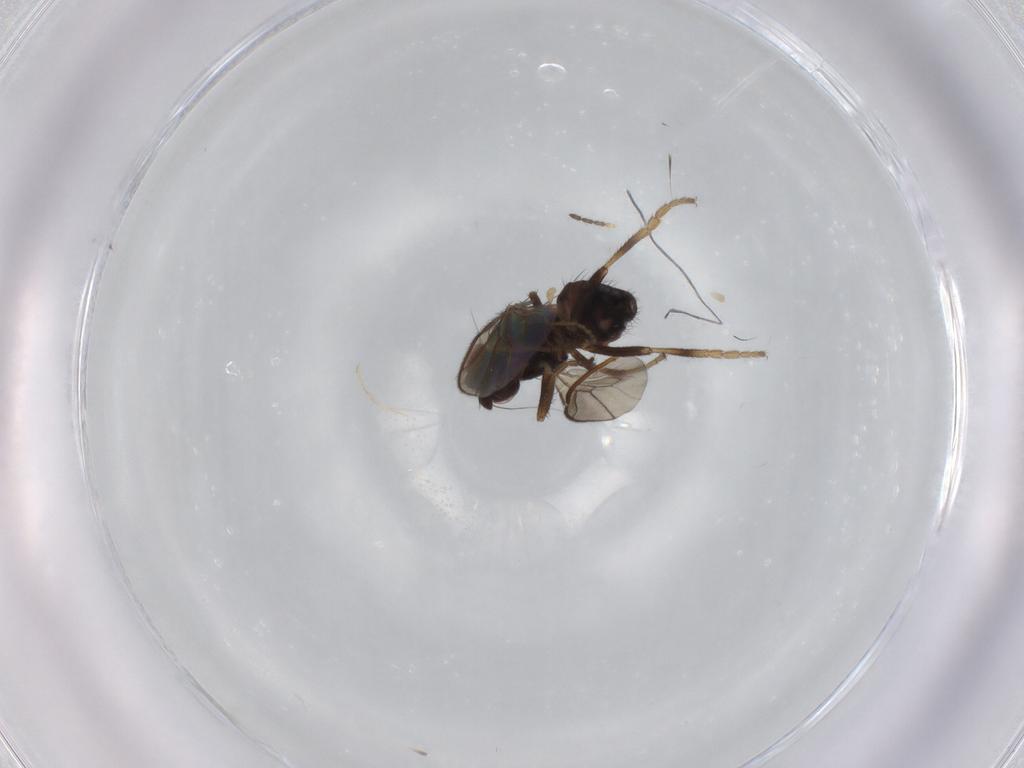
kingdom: Animalia
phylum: Arthropoda
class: Insecta
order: Diptera
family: Sphaeroceridae
